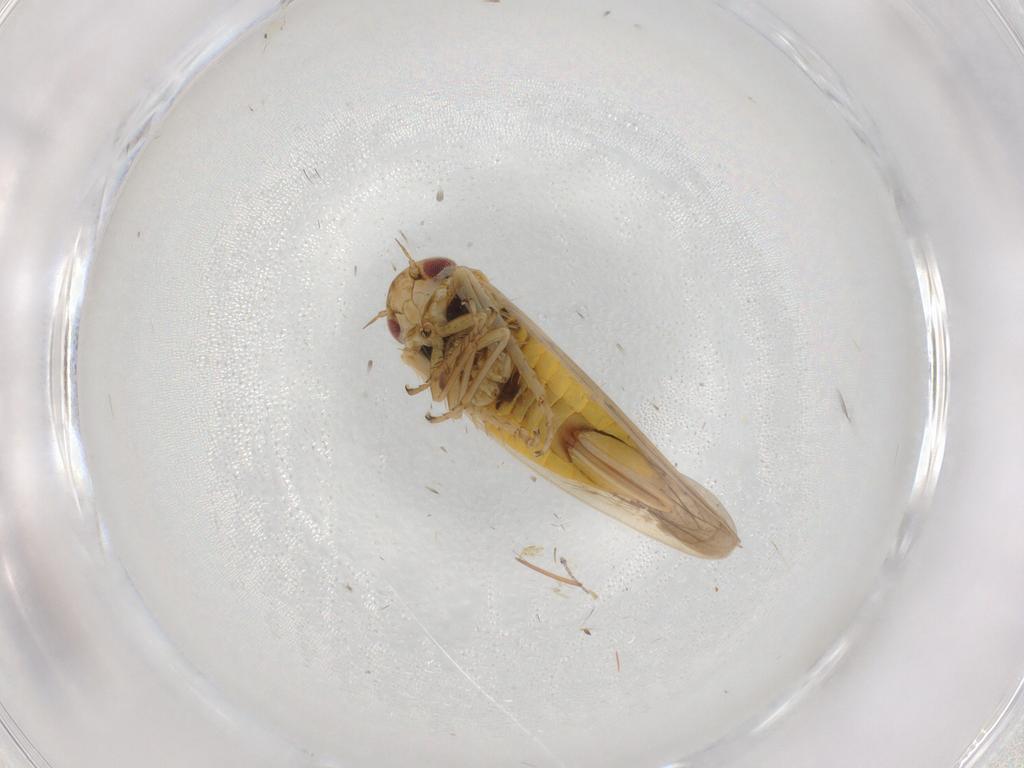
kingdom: Animalia
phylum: Arthropoda
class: Insecta
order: Hemiptera
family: Cicadellidae
